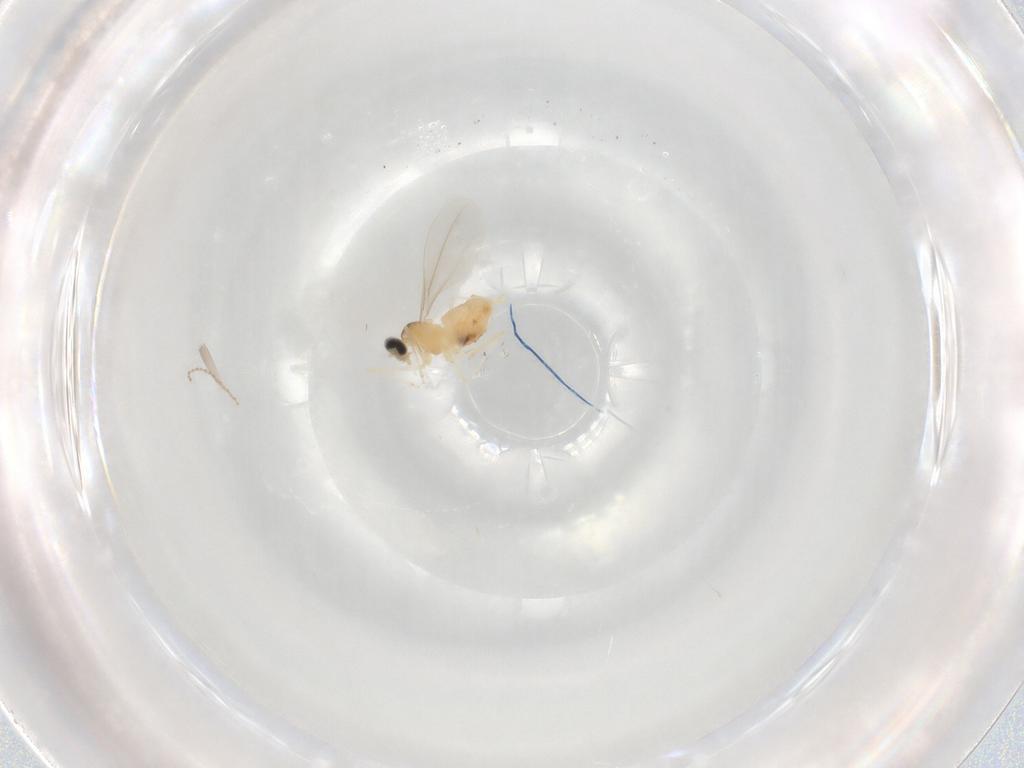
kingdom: Animalia
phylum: Arthropoda
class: Insecta
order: Diptera
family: Cecidomyiidae
